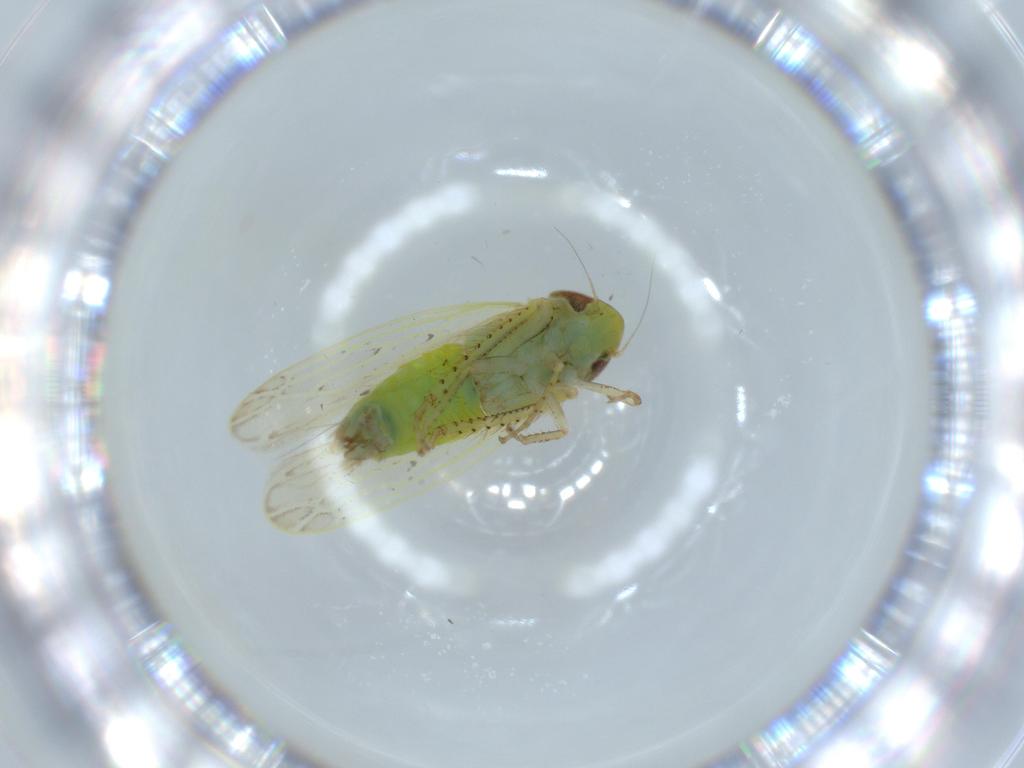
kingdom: Animalia
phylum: Arthropoda
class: Insecta
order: Hemiptera
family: Cicadellidae
